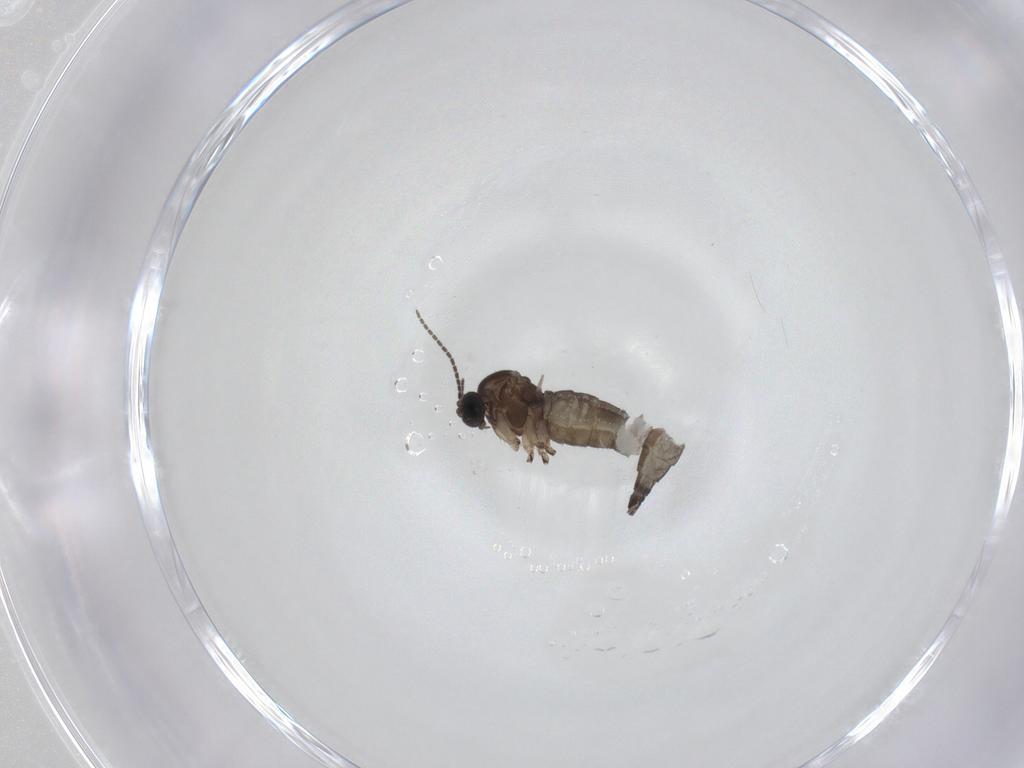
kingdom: Animalia
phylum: Arthropoda
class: Insecta
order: Diptera
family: Sciaridae
